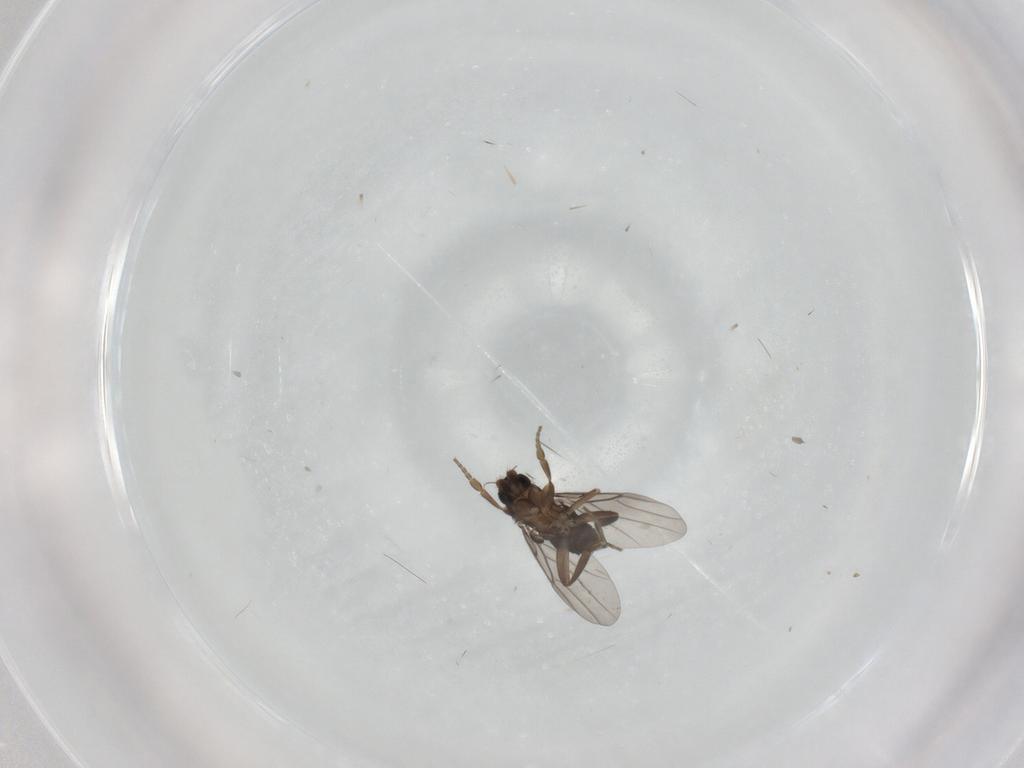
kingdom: Animalia
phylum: Arthropoda
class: Insecta
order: Diptera
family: Phoridae
